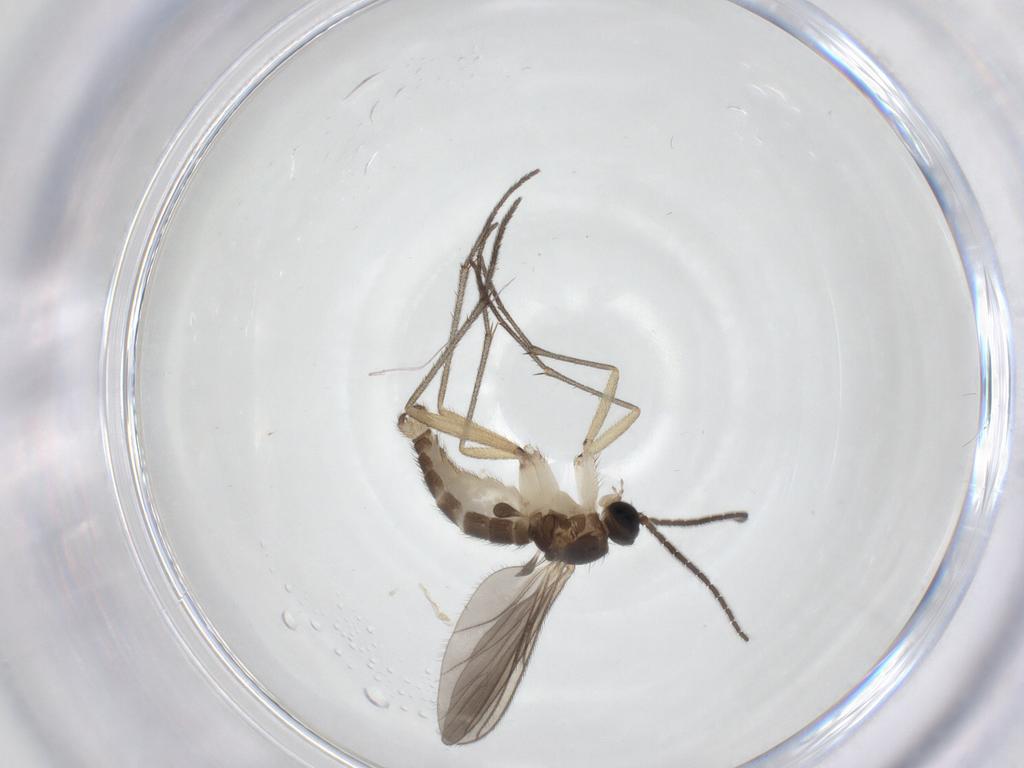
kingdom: Animalia
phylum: Arthropoda
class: Insecta
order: Diptera
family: Sciaridae
